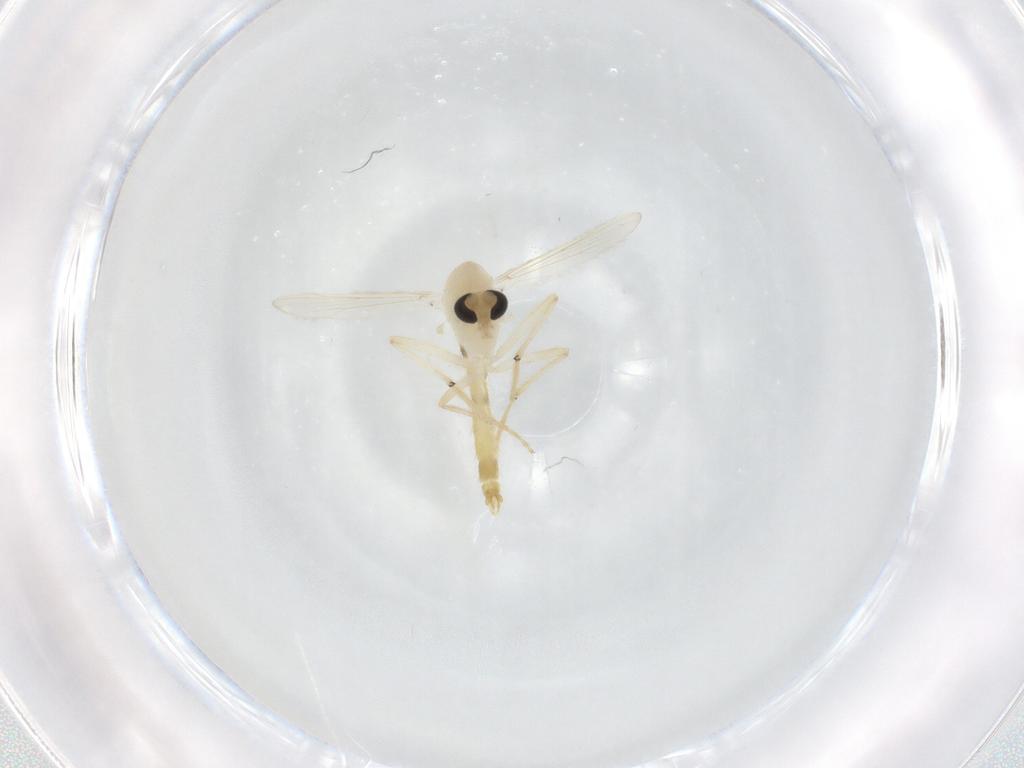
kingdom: Animalia
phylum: Arthropoda
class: Insecta
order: Diptera
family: Chironomidae
